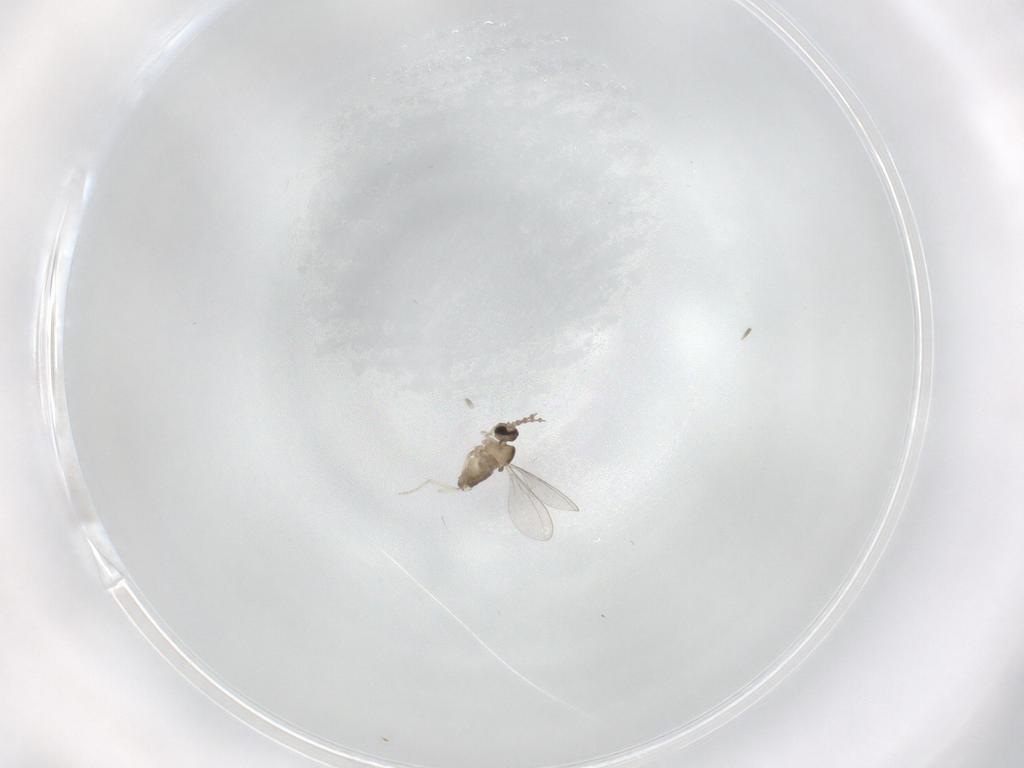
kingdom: Animalia
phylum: Arthropoda
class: Insecta
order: Diptera
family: Cecidomyiidae
